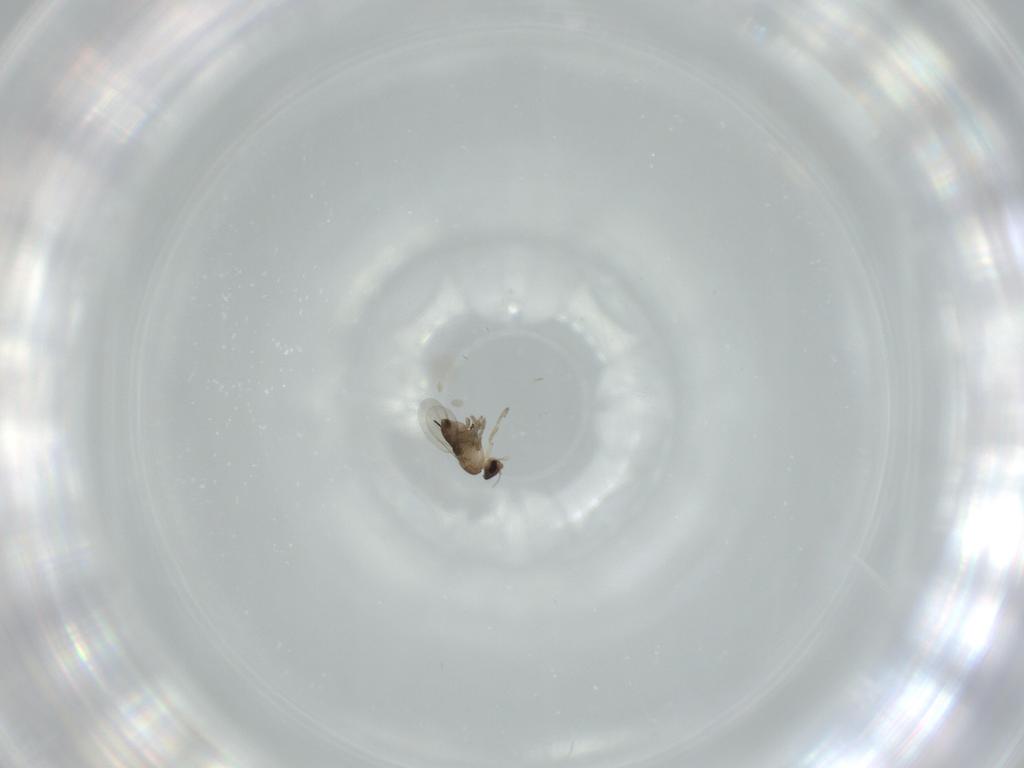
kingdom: Animalia
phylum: Arthropoda
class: Insecta
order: Diptera
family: Phoridae
